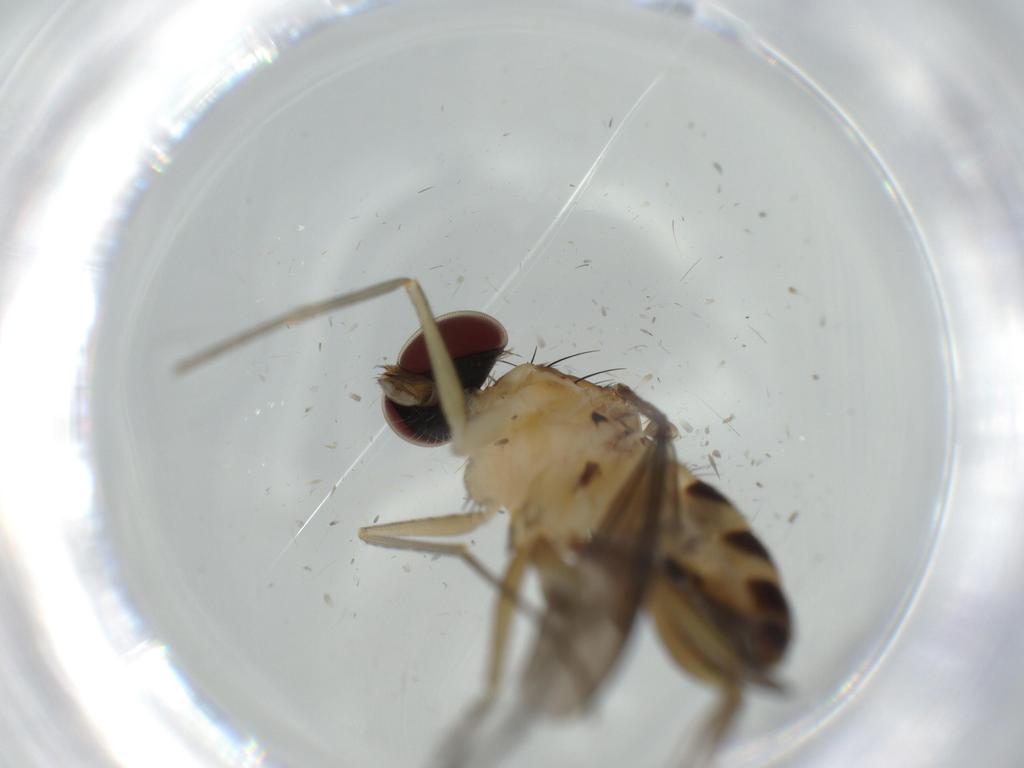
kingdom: Animalia
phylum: Arthropoda
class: Insecta
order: Diptera
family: Dolichopodidae
